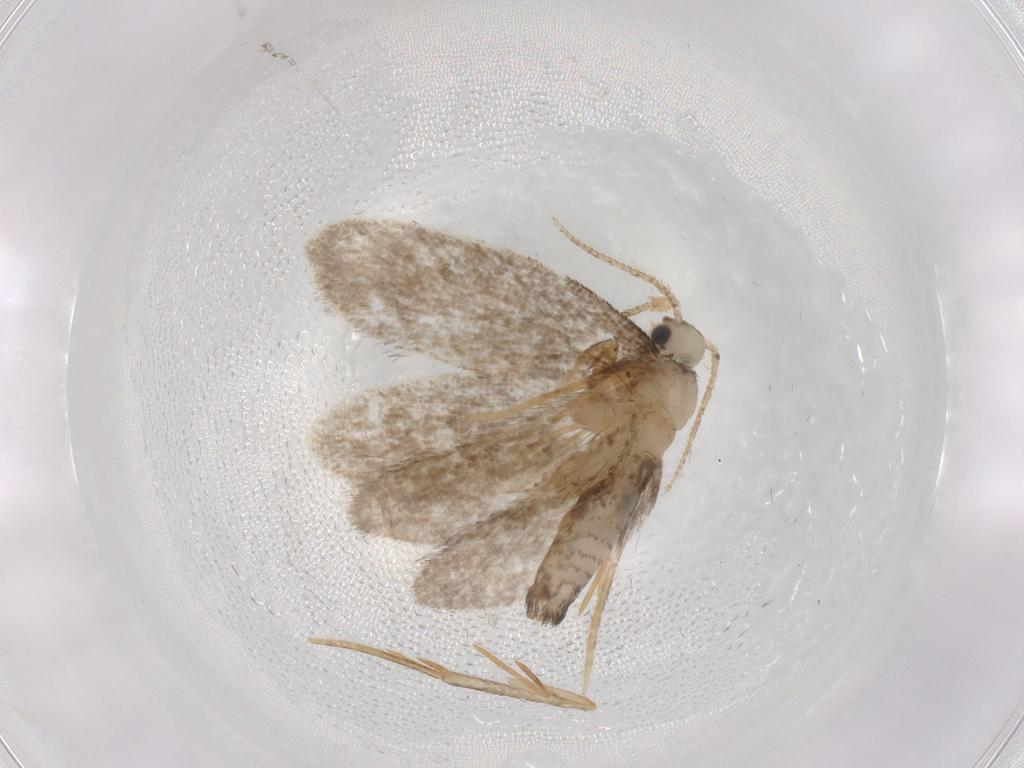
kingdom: Animalia
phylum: Arthropoda
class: Insecta
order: Lepidoptera
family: Psychidae
